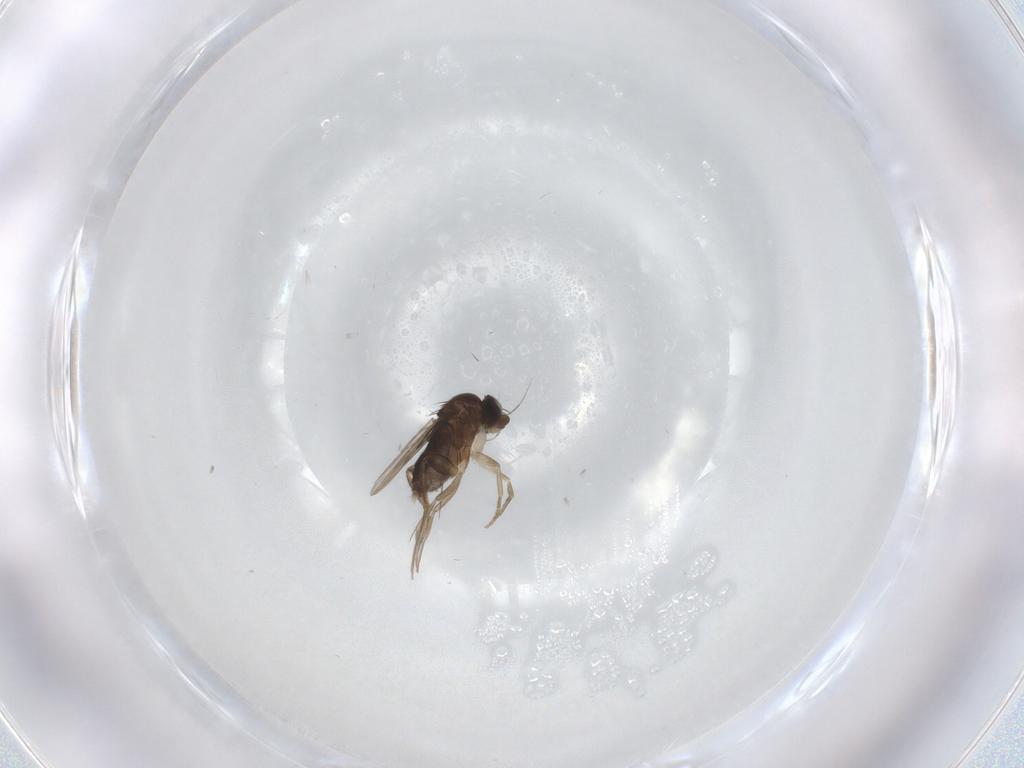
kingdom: Animalia
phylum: Arthropoda
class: Insecta
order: Diptera
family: Phoridae
